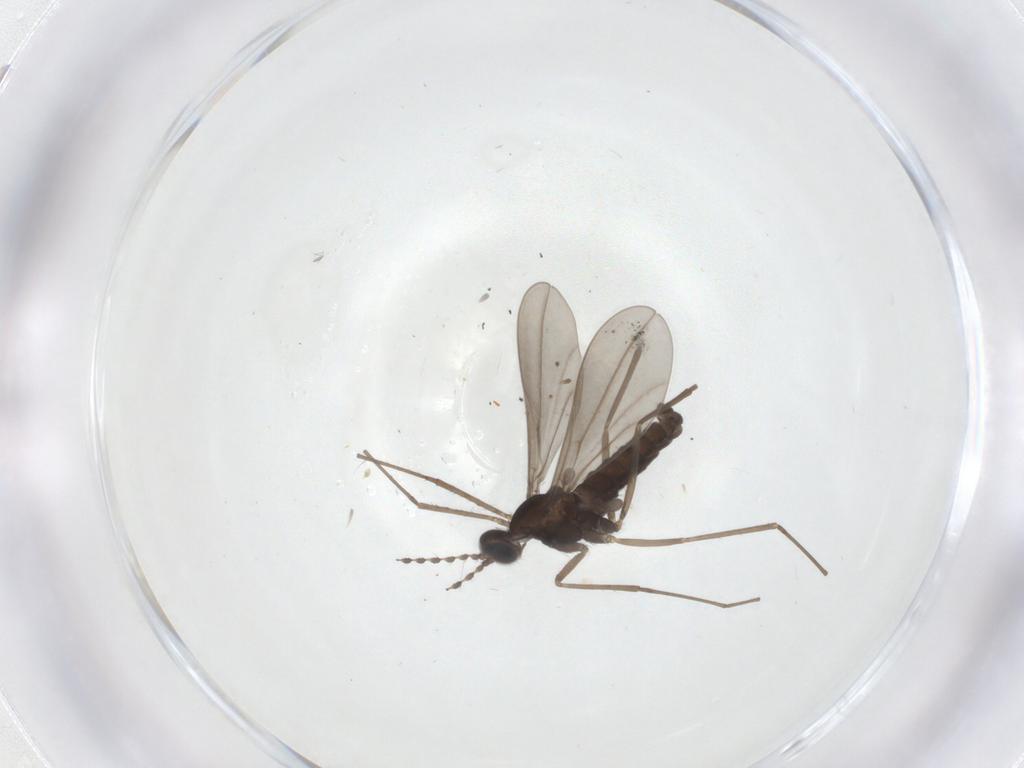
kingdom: Animalia
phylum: Arthropoda
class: Insecta
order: Diptera
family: Cecidomyiidae
